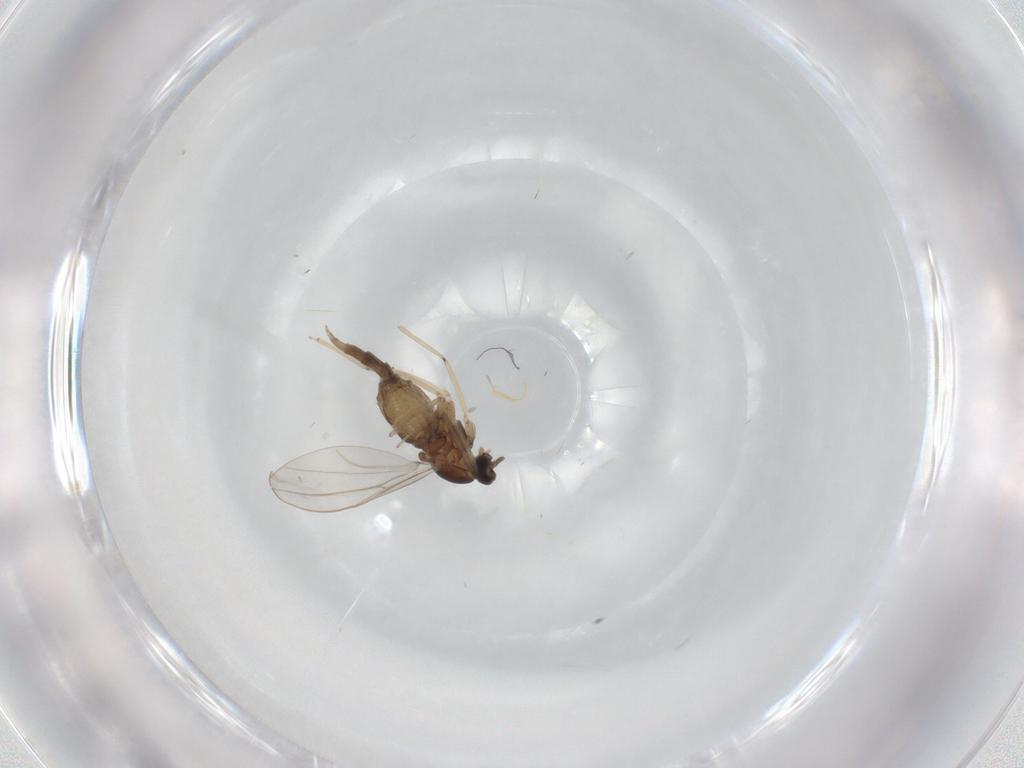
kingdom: Animalia
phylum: Arthropoda
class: Insecta
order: Diptera
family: Cecidomyiidae
